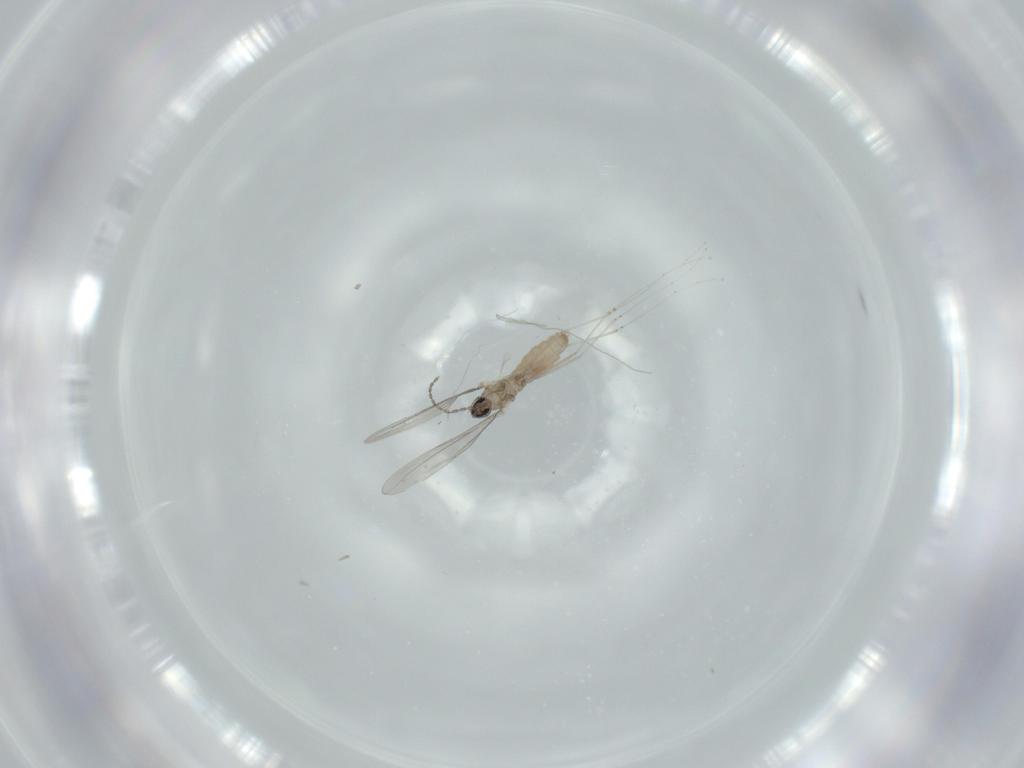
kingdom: Animalia
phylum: Arthropoda
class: Insecta
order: Diptera
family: Cecidomyiidae
